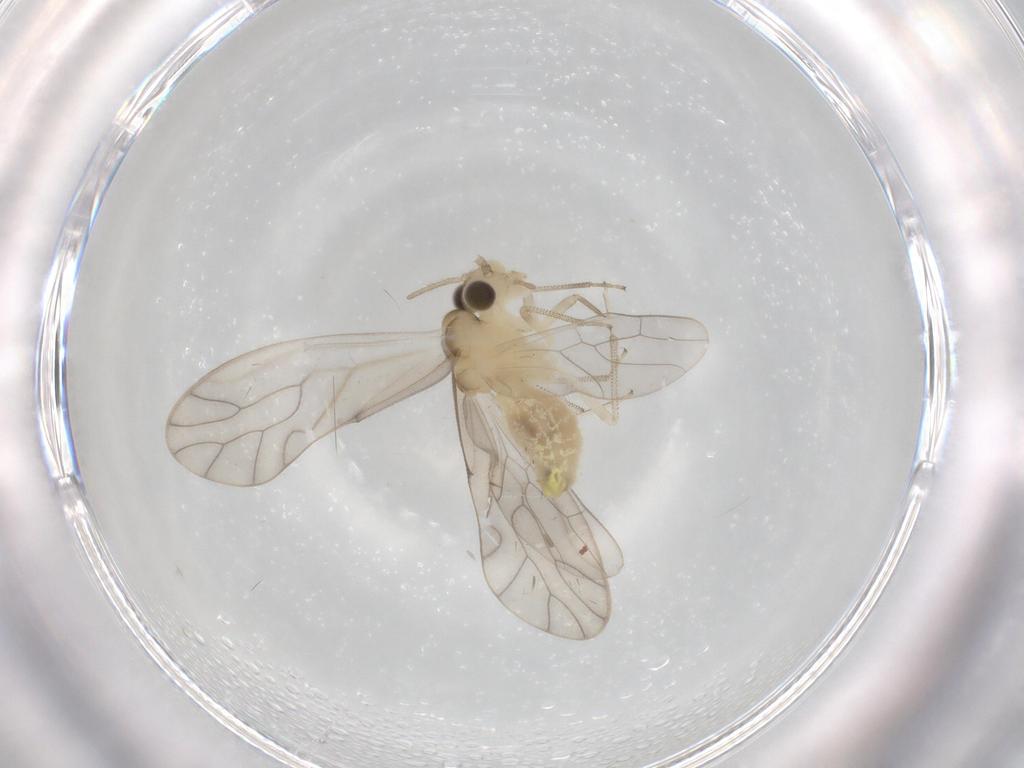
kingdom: Animalia
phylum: Arthropoda
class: Insecta
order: Psocodea
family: Caeciliusidae
